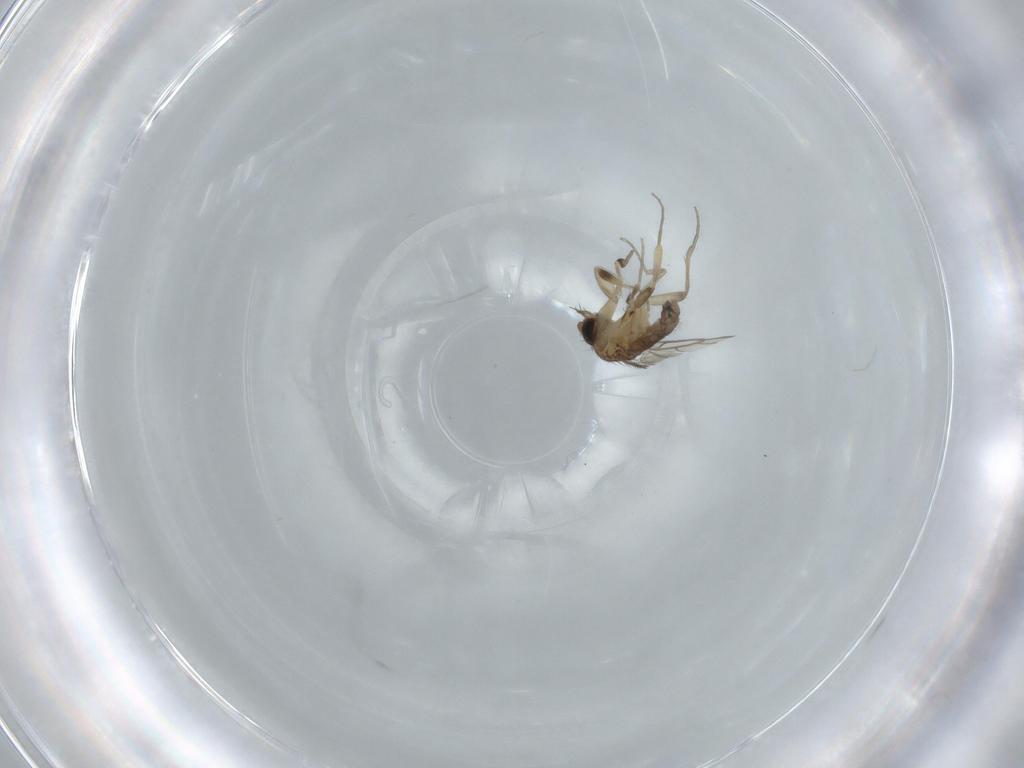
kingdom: Animalia
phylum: Arthropoda
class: Insecta
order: Diptera
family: Phoridae
